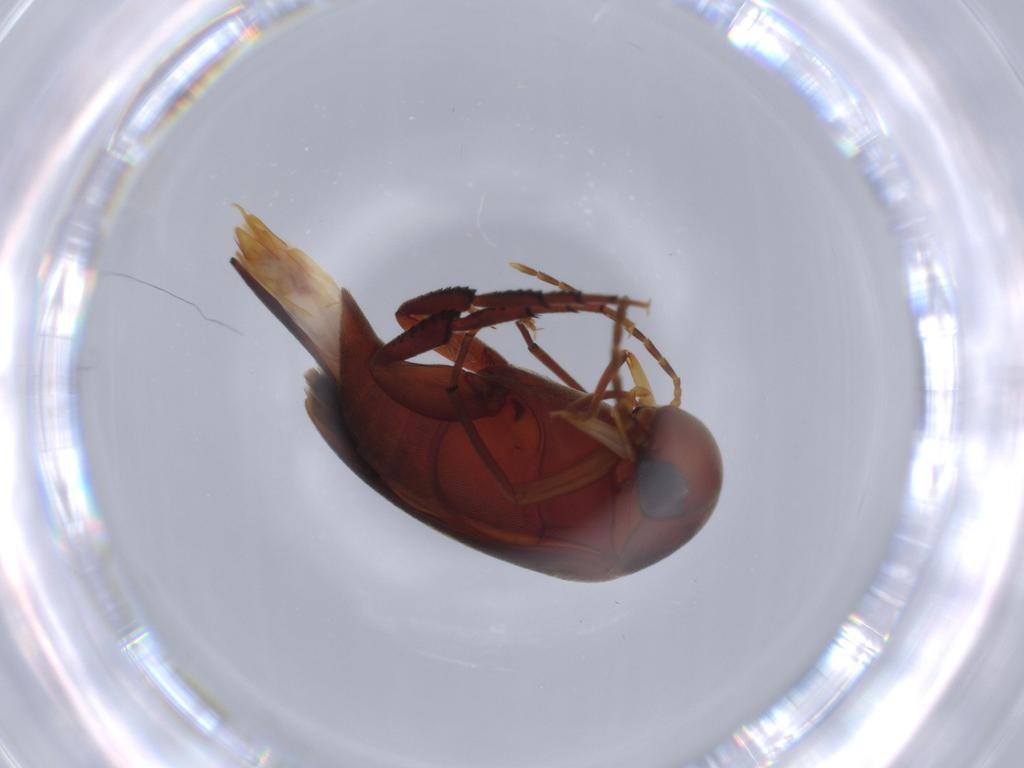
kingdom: Animalia
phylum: Arthropoda
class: Insecta
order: Coleoptera
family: Mordellidae
